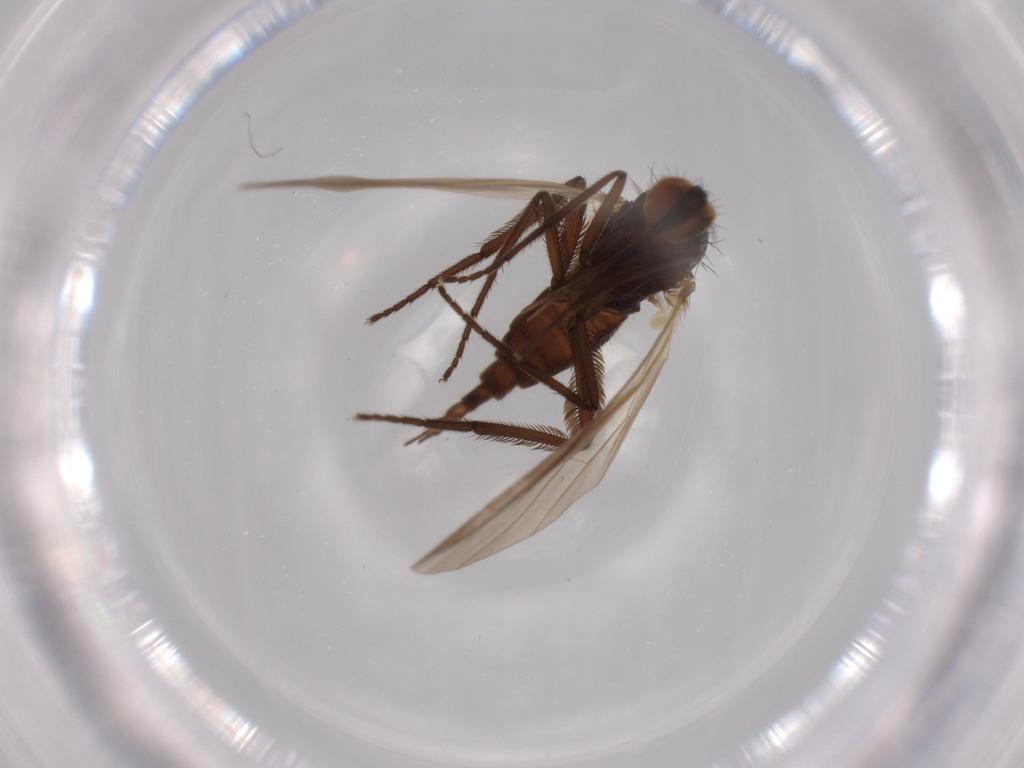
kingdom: Animalia
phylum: Arthropoda
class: Insecta
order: Diptera
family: Empididae
